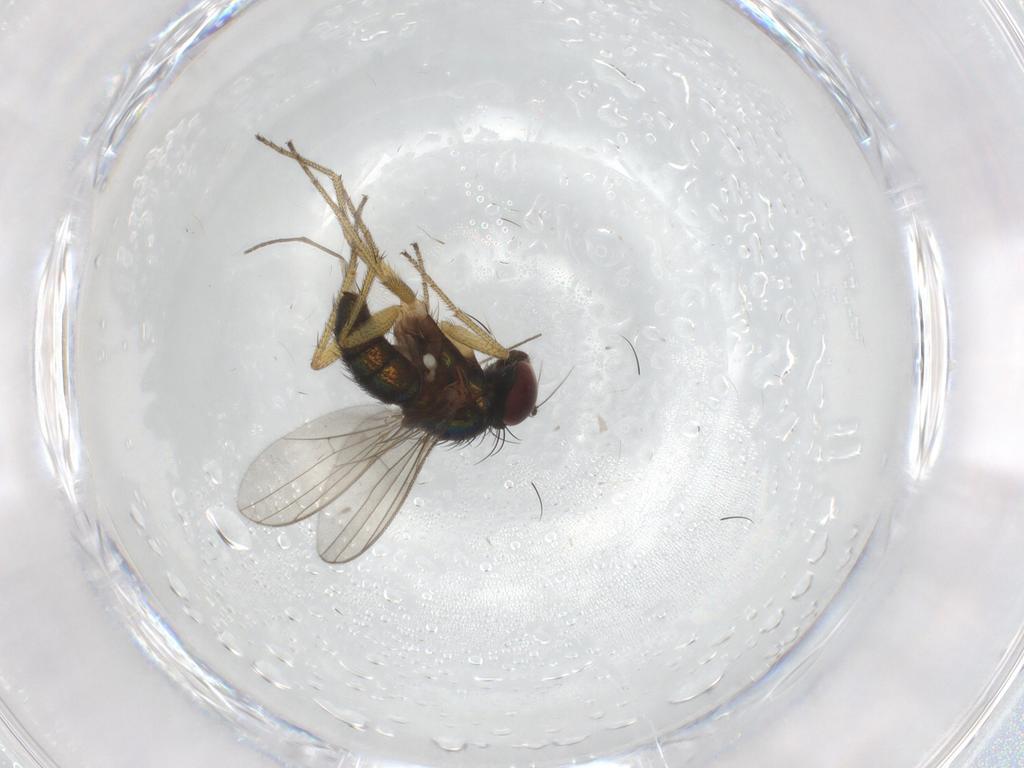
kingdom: Animalia
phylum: Arthropoda
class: Insecta
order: Diptera
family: Drosophilidae
